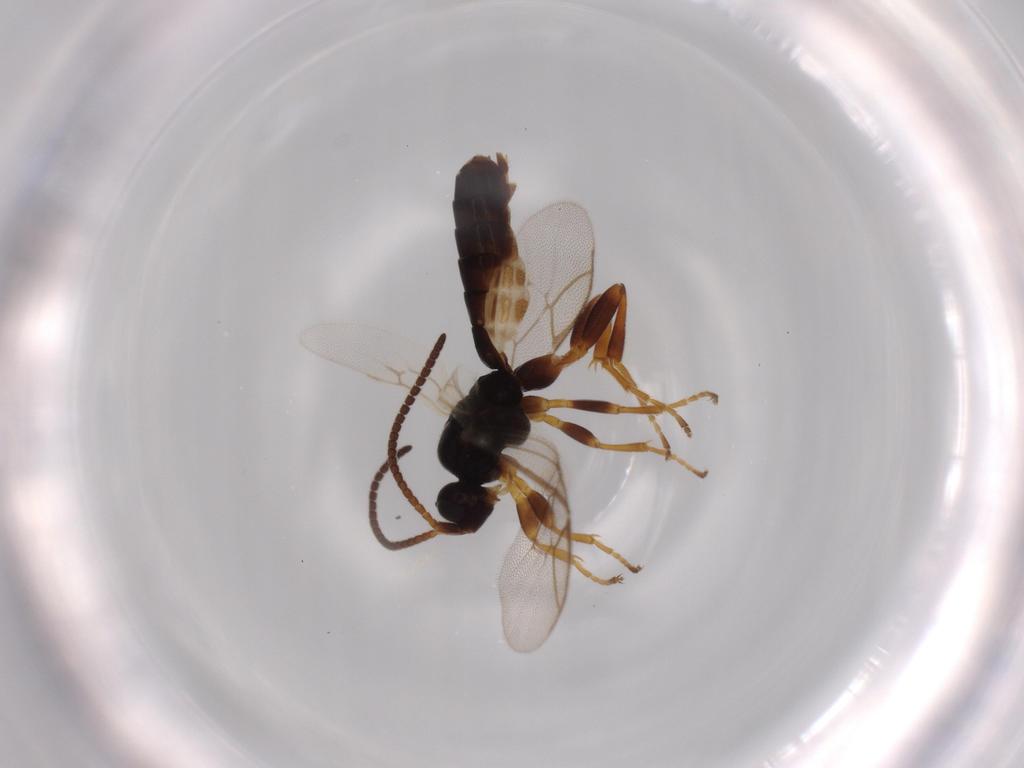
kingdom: Animalia
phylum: Arthropoda
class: Insecta
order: Hymenoptera
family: Ichneumonidae
